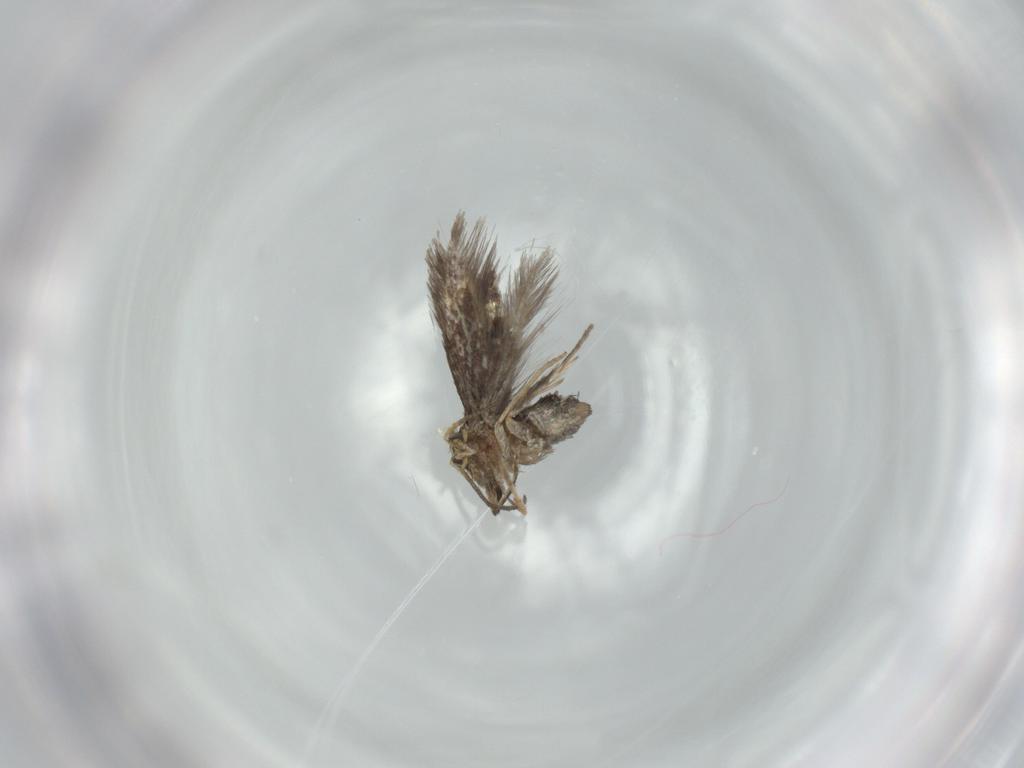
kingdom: Animalia
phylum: Arthropoda
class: Insecta
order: Lepidoptera
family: Nepticulidae
